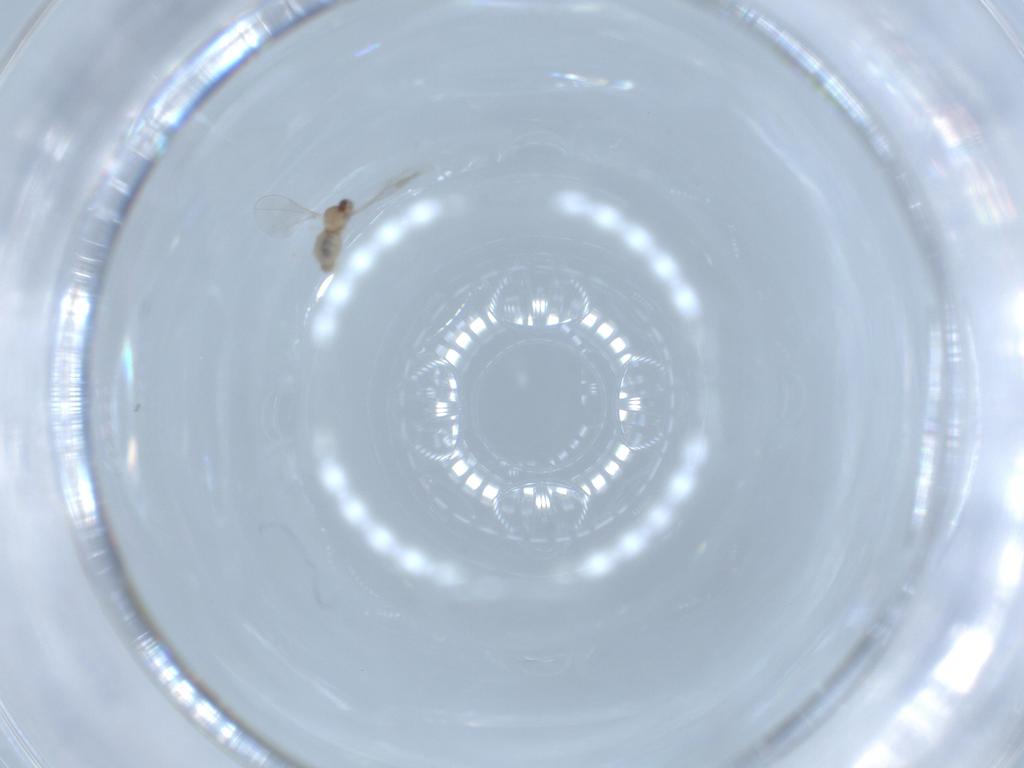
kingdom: Animalia
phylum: Arthropoda
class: Insecta
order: Diptera
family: Cecidomyiidae
